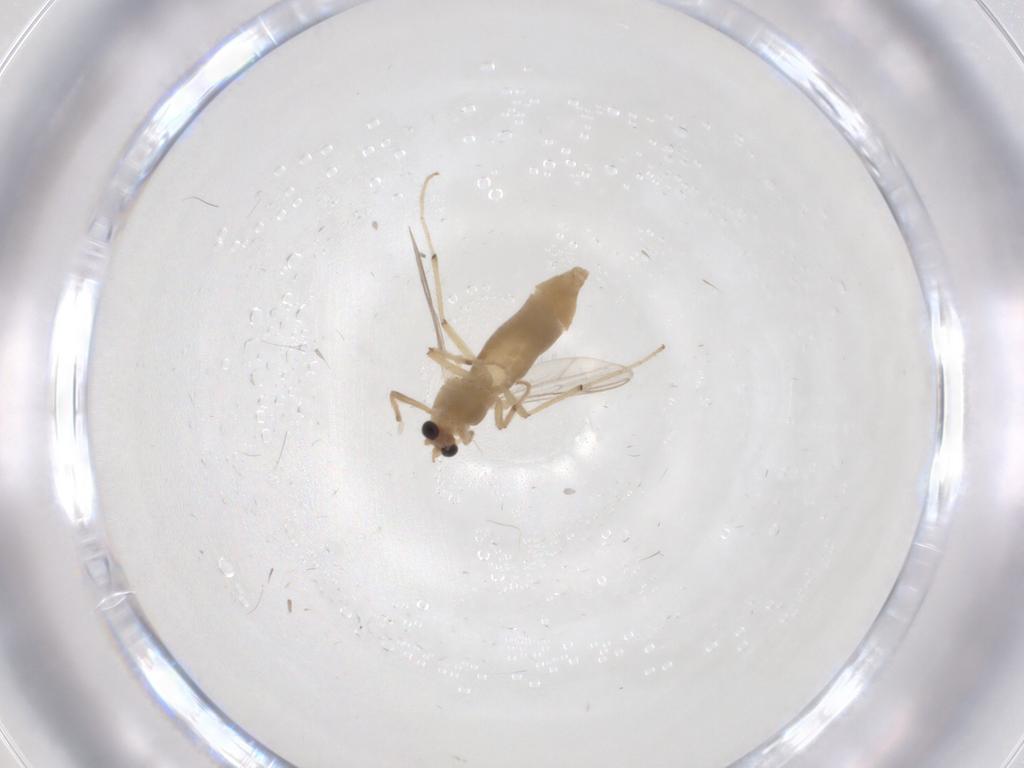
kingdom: Animalia
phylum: Arthropoda
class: Insecta
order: Diptera
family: Chironomidae
